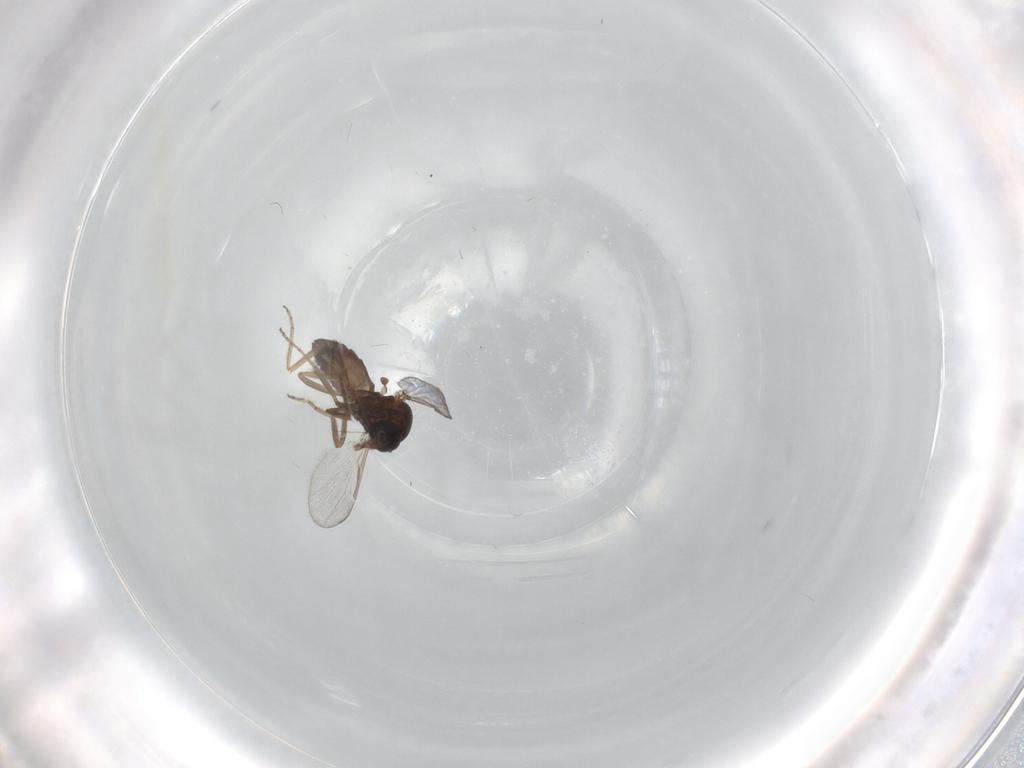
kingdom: Animalia
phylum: Arthropoda
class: Insecta
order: Diptera
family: Ceratopogonidae
